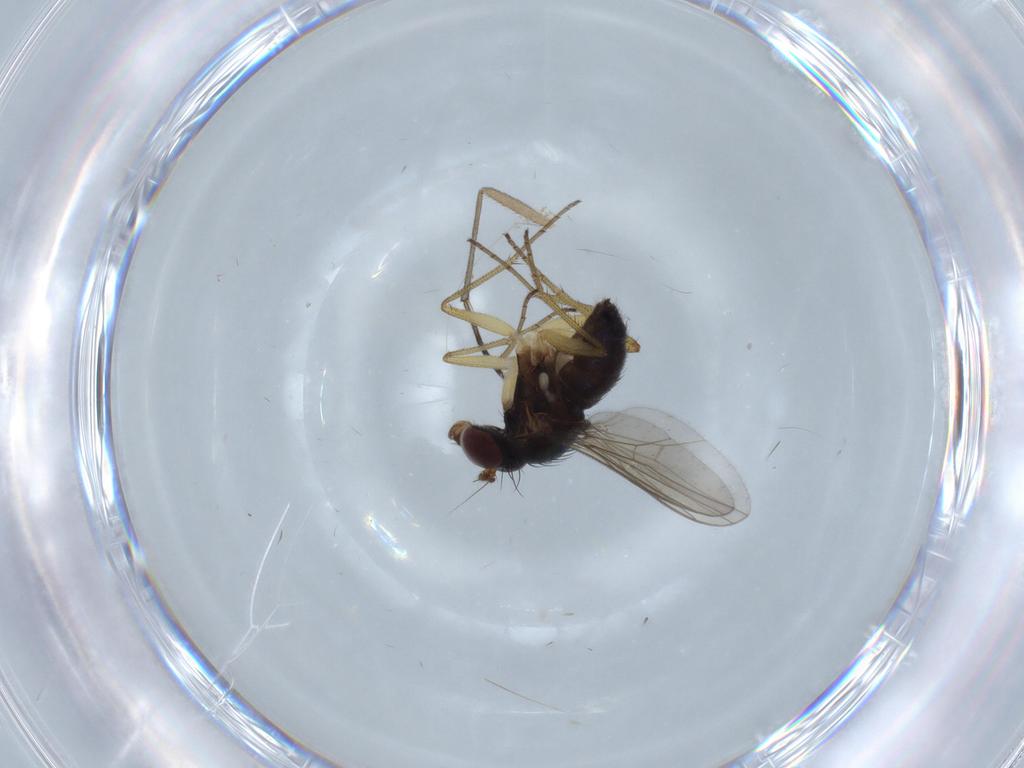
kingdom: Animalia
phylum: Arthropoda
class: Insecta
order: Diptera
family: Dolichopodidae
